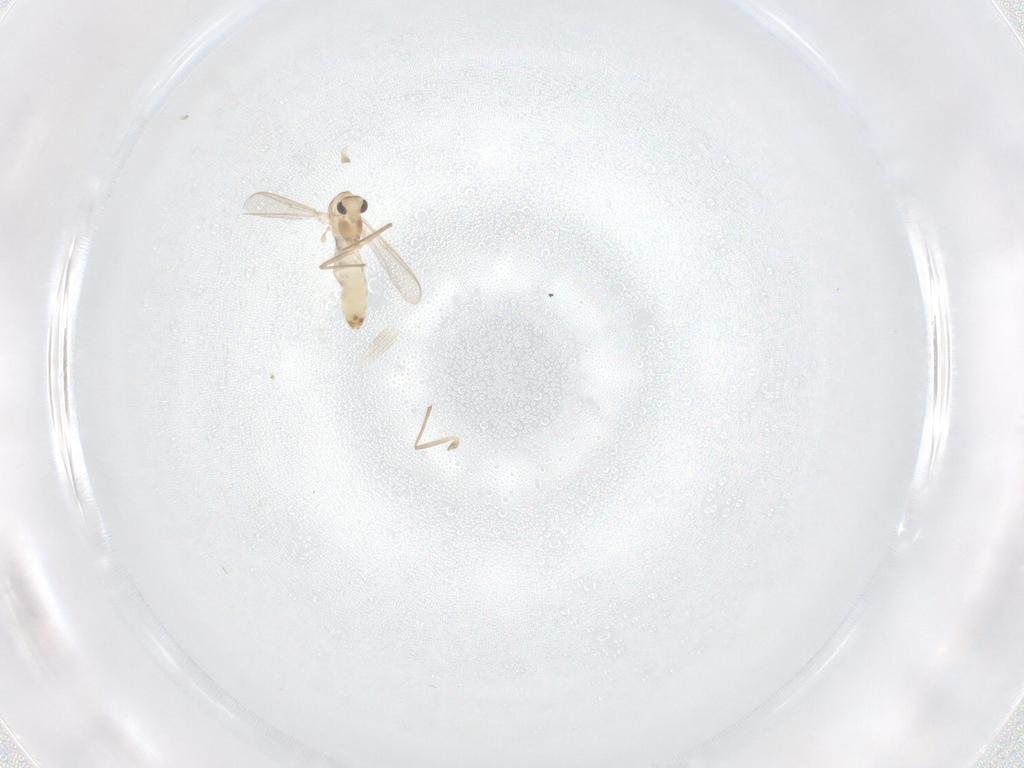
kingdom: Animalia
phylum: Arthropoda
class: Insecta
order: Diptera
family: Chironomidae
